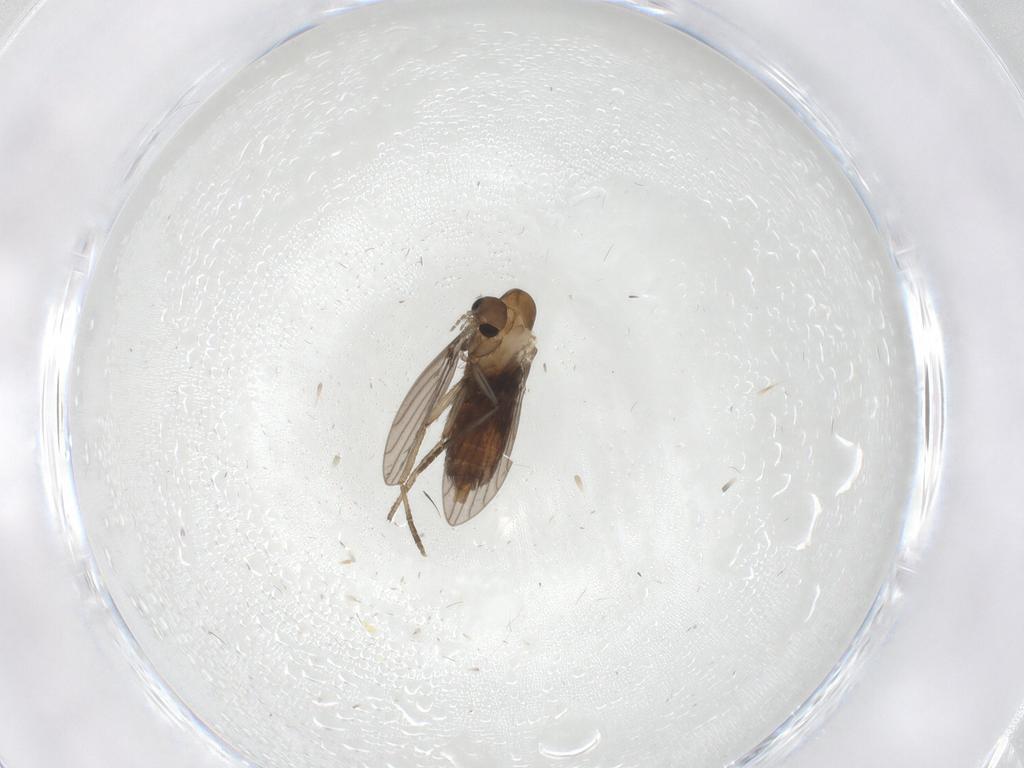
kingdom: Animalia
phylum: Arthropoda
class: Insecta
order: Diptera
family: Psychodidae
